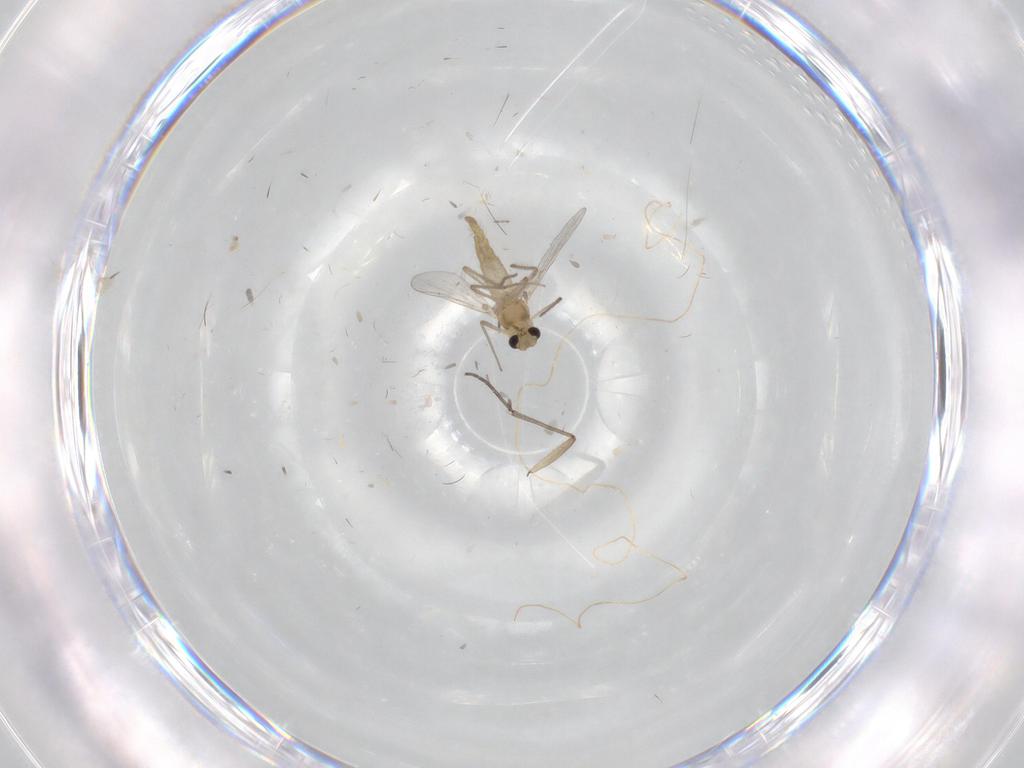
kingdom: Animalia
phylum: Arthropoda
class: Insecta
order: Diptera
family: Chironomidae
